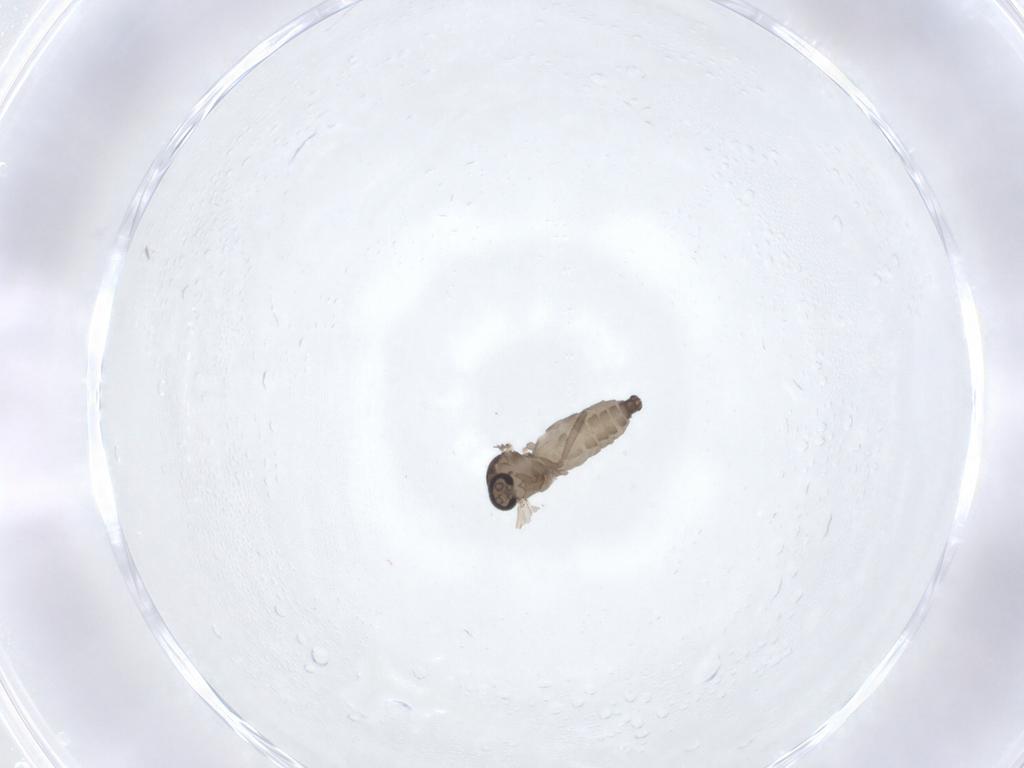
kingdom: Animalia
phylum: Arthropoda
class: Insecta
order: Diptera
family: Ceratopogonidae
